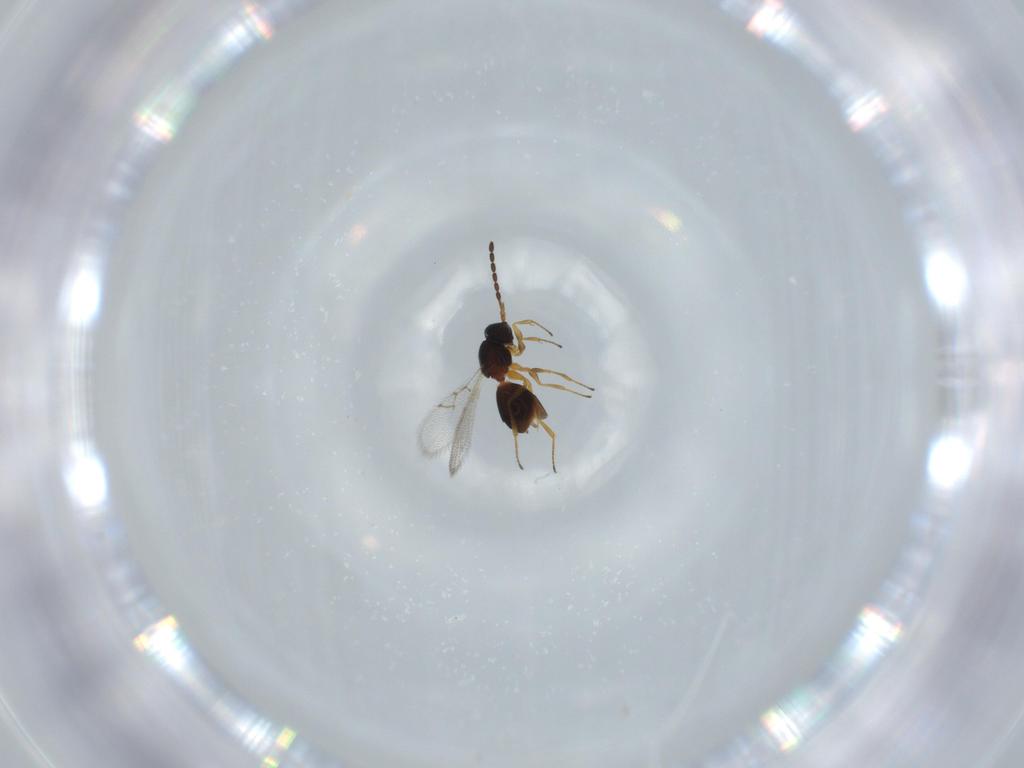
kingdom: Animalia
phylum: Arthropoda
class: Insecta
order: Hymenoptera
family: Figitidae
